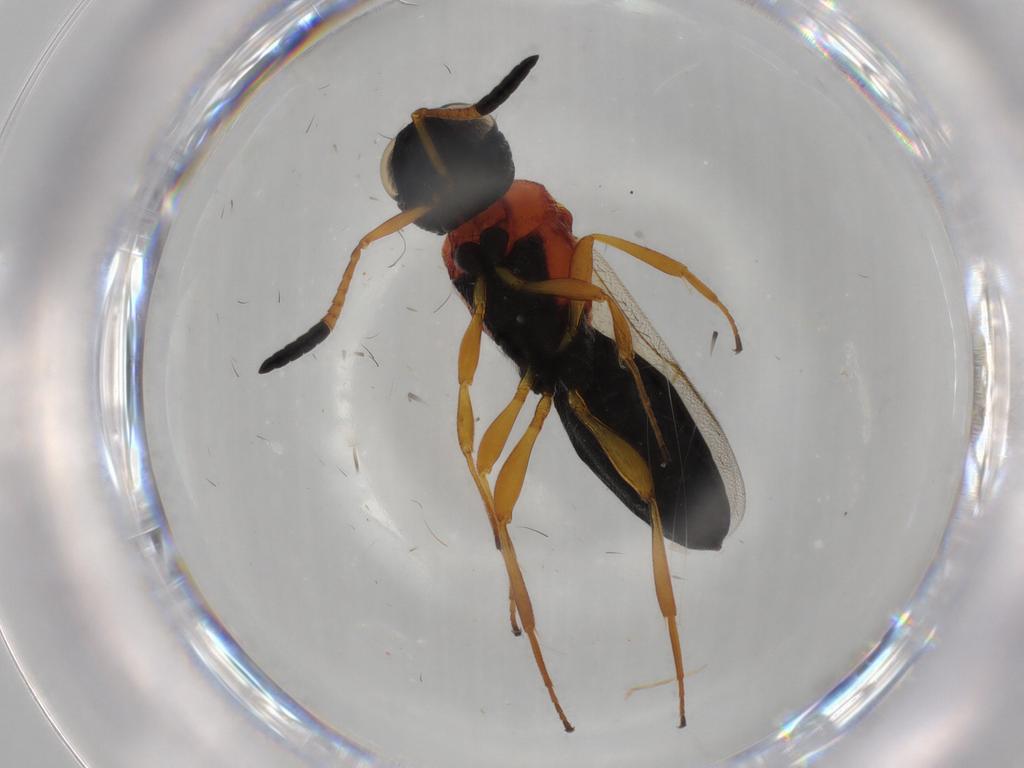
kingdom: Animalia
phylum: Arthropoda
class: Insecta
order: Hymenoptera
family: Scelionidae
